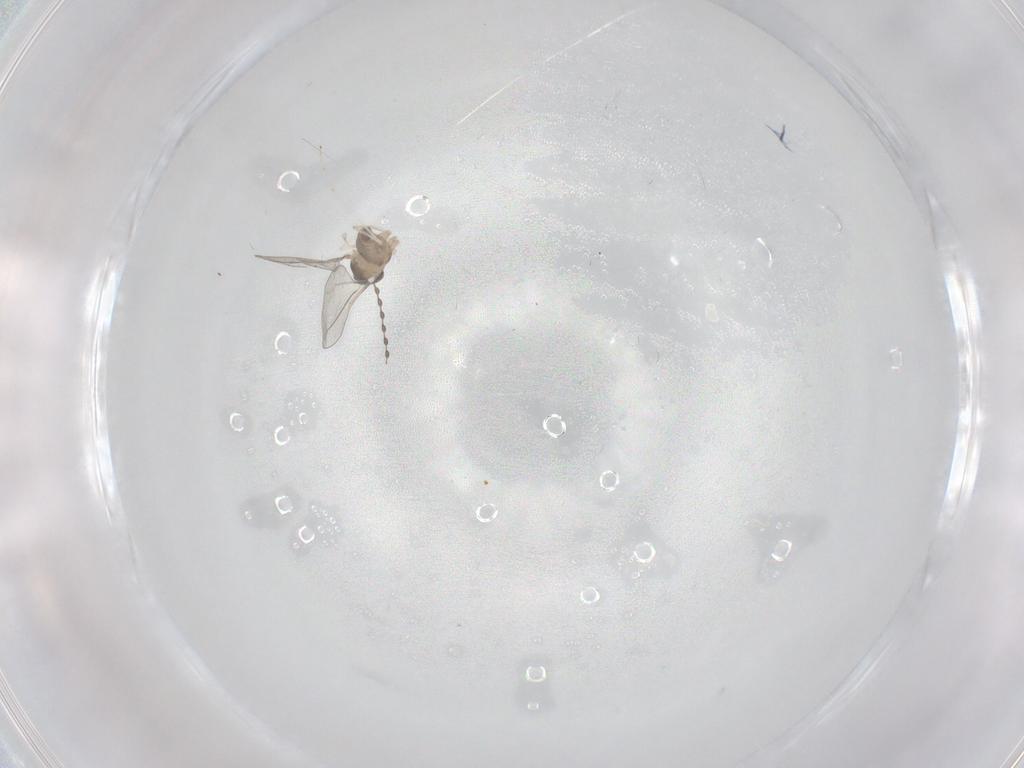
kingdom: Animalia
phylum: Arthropoda
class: Insecta
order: Diptera
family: Cecidomyiidae
